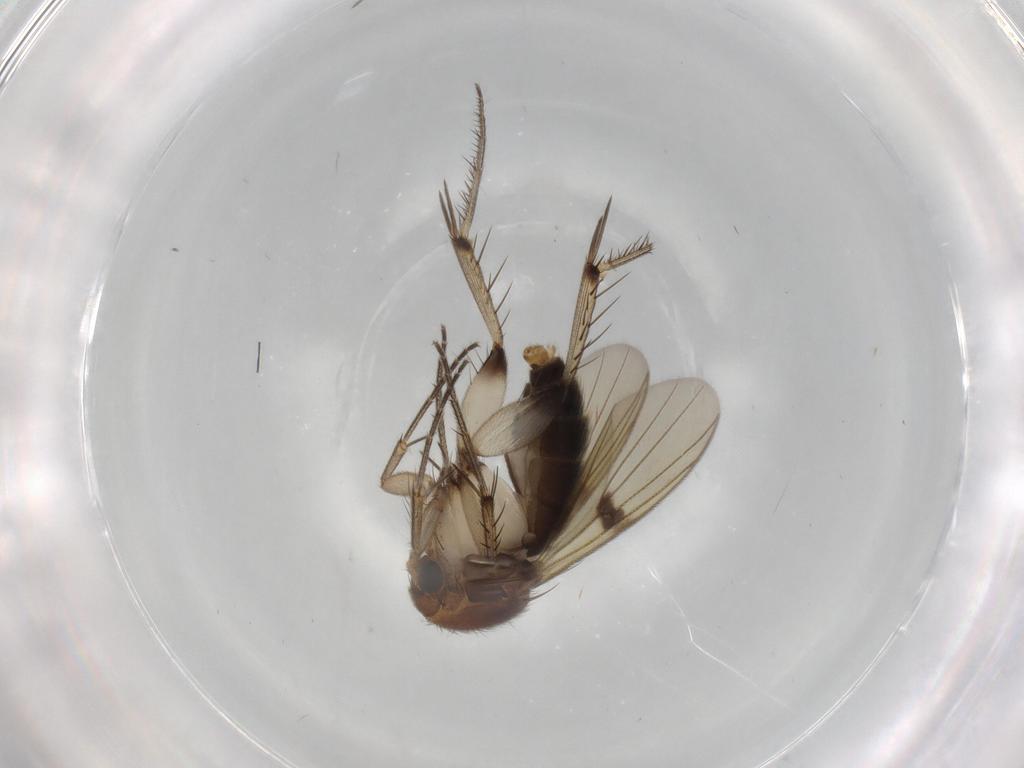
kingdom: Animalia
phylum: Arthropoda
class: Insecta
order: Diptera
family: Mycetophilidae
